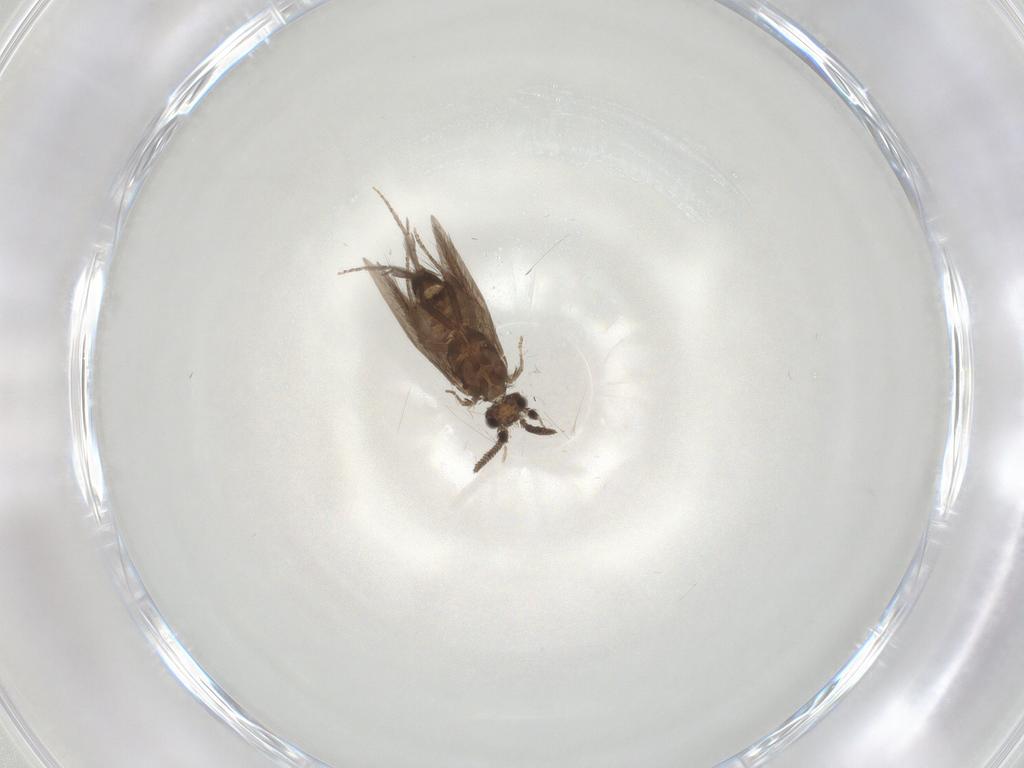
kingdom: Animalia
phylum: Arthropoda
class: Insecta
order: Trichoptera
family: Hydroptilidae
